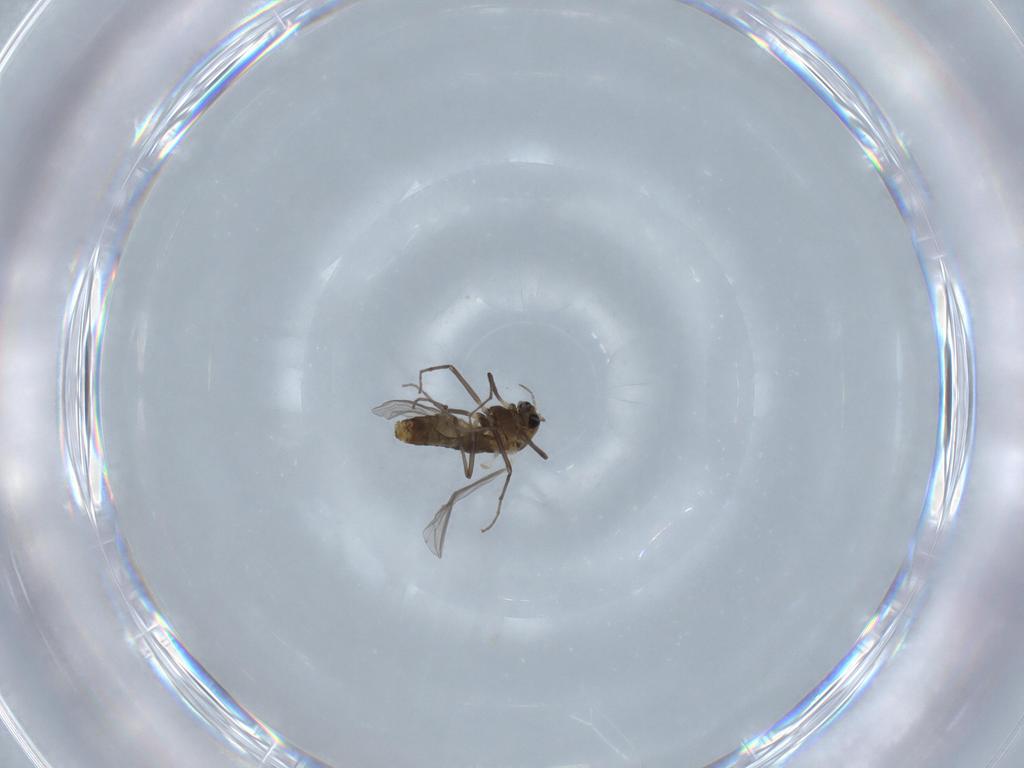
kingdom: Animalia
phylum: Arthropoda
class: Insecta
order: Diptera
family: Chironomidae
